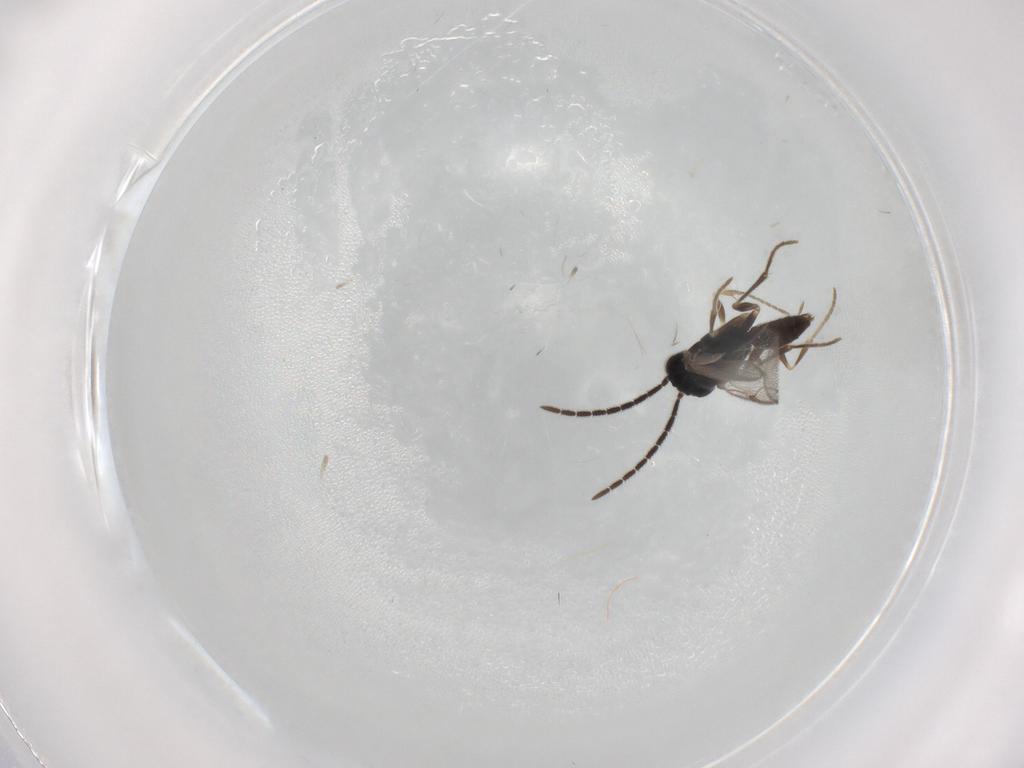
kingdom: Animalia
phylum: Arthropoda
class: Insecta
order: Hymenoptera
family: Dryinidae
